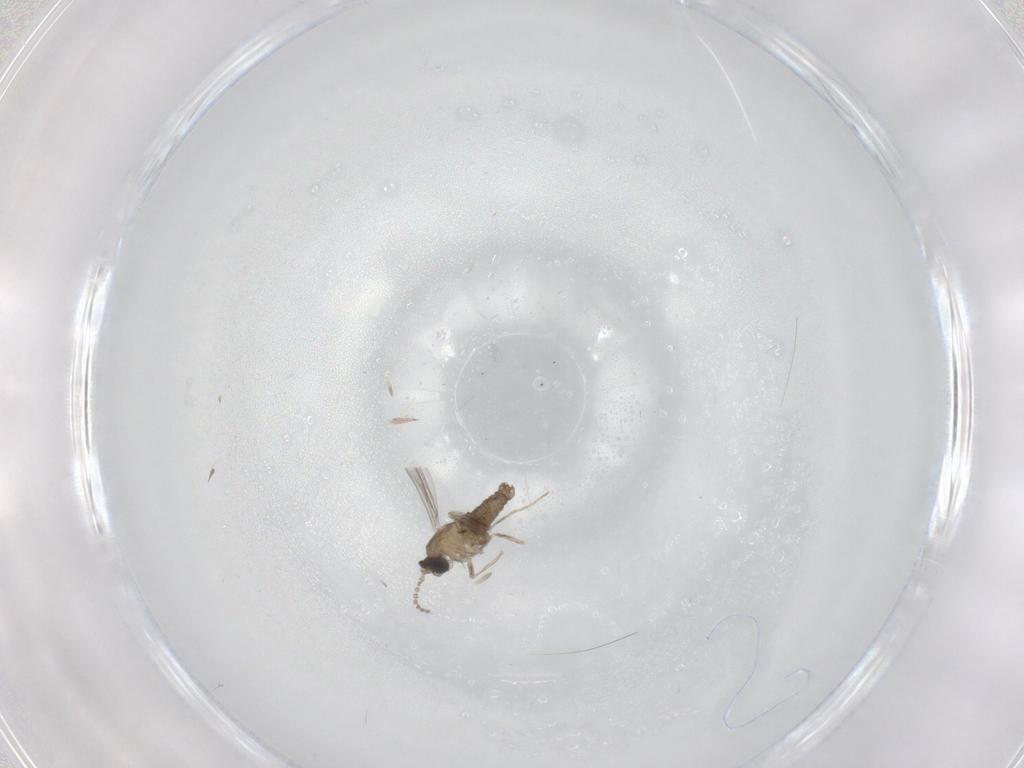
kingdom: Animalia
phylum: Arthropoda
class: Insecta
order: Diptera
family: Cecidomyiidae
